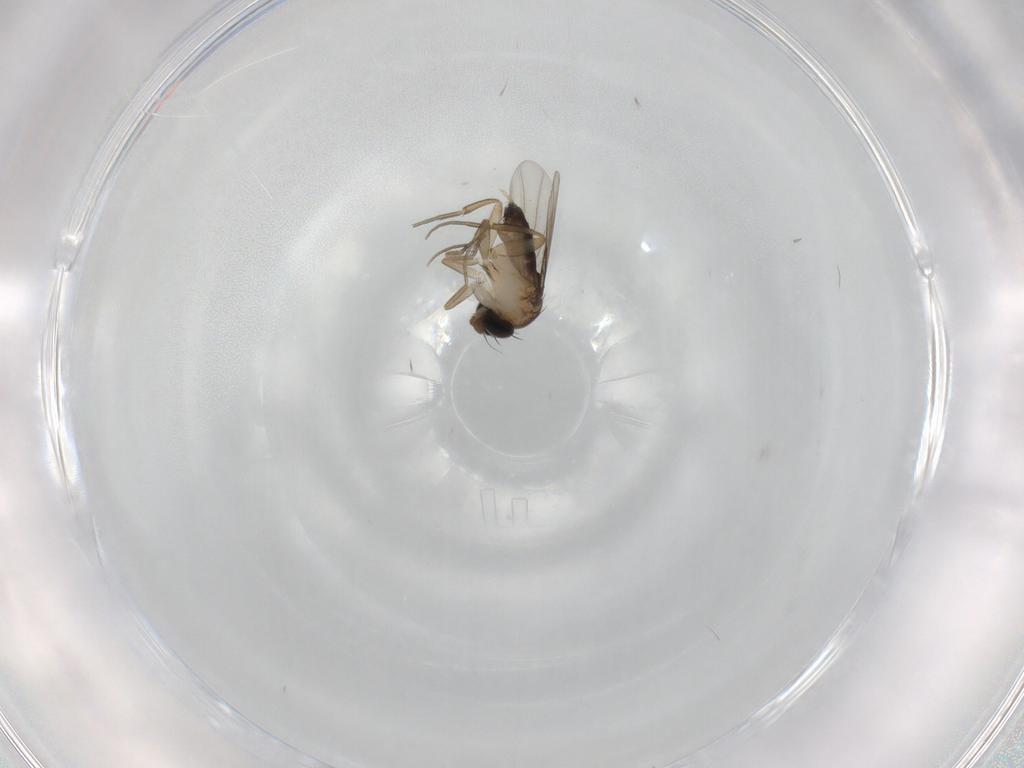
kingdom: Animalia
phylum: Arthropoda
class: Insecta
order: Diptera
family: Phoridae
